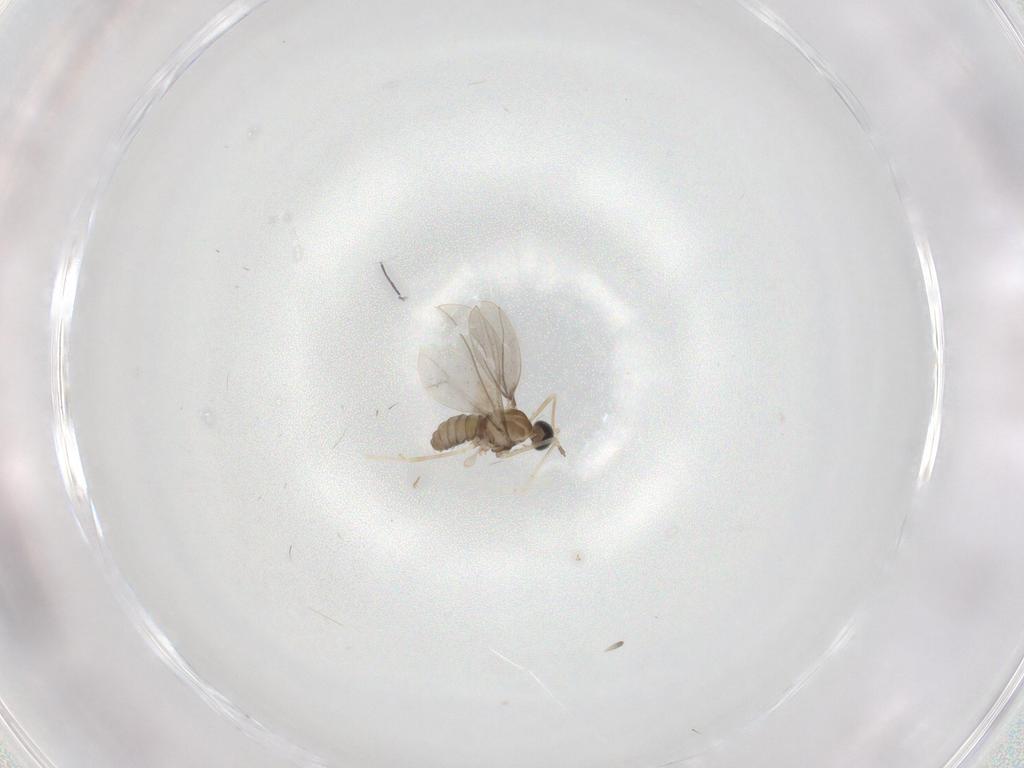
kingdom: Animalia
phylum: Arthropoda
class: Insecta
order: Diptera
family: Cecidomyiidae
